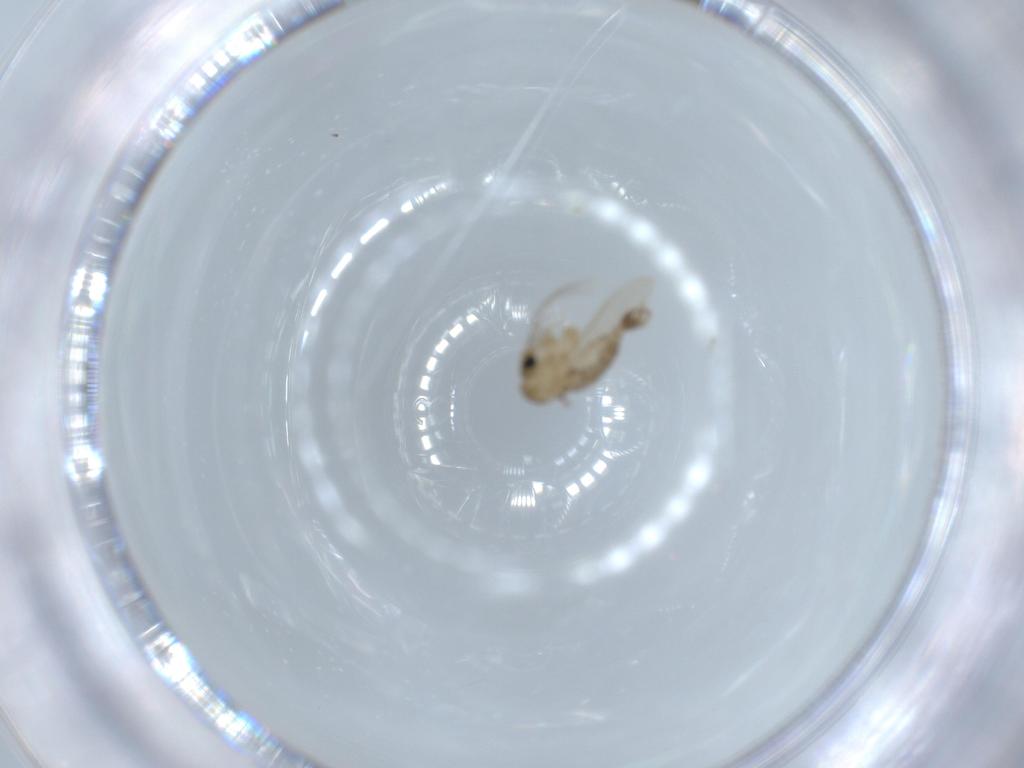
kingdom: Animalia
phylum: Arthropoda
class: Insecta
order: Diptera
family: Psychodidae
